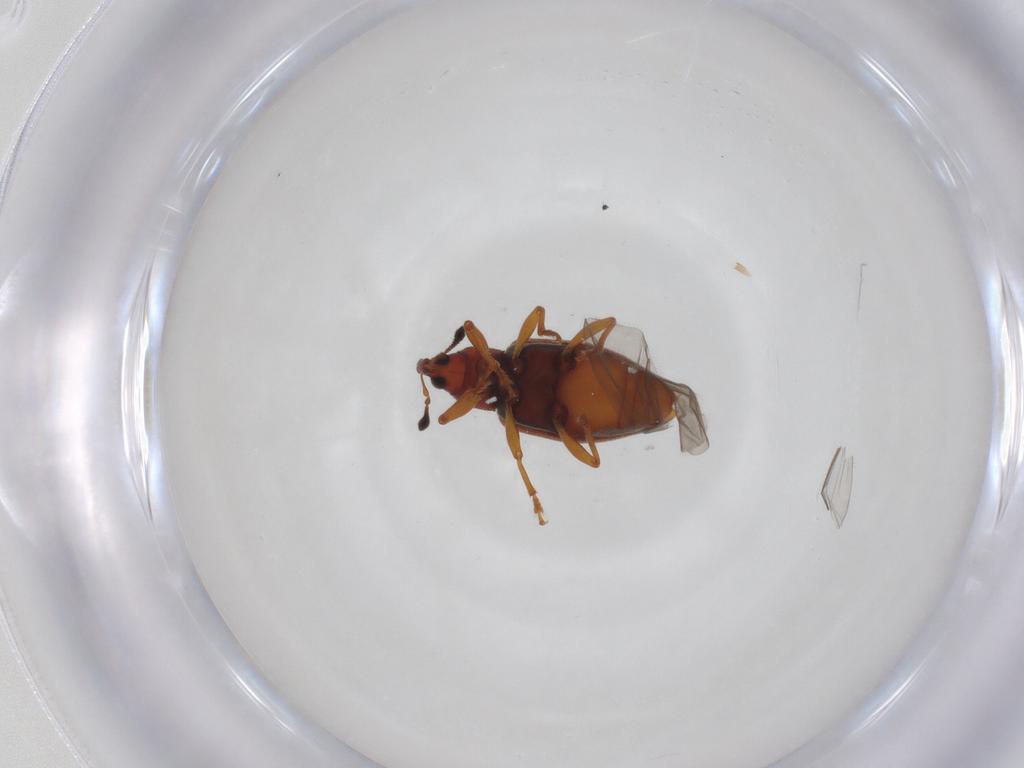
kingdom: Animalia
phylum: Arthropoda
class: Insecta
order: Coleoptera
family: Curculionidae
